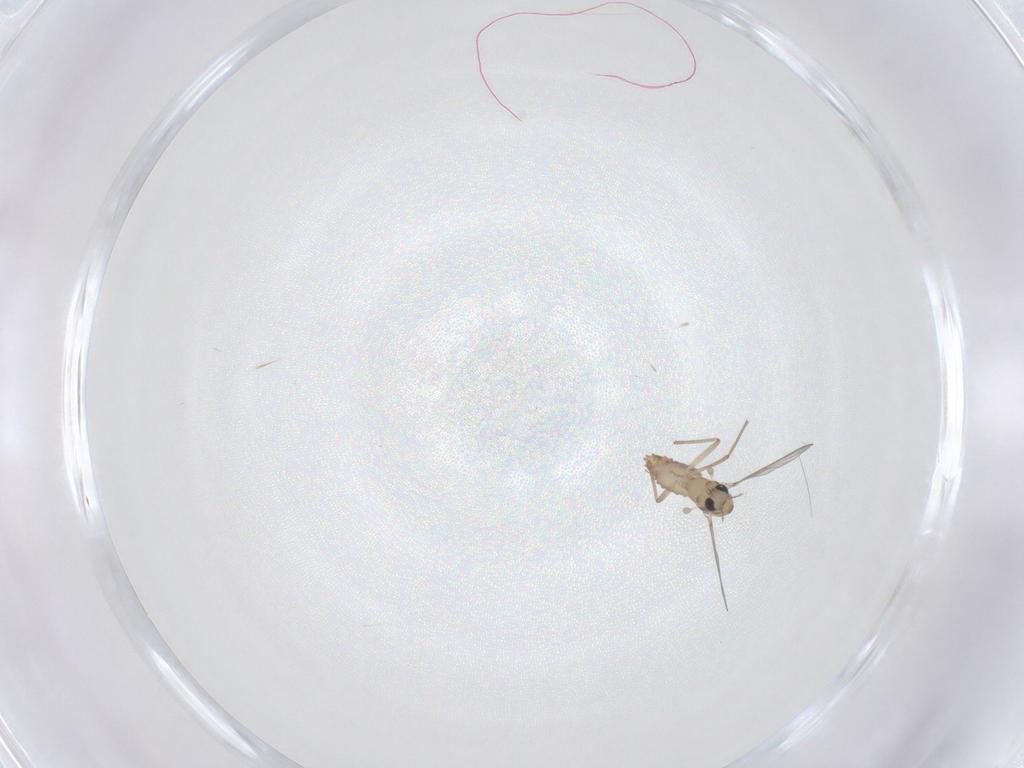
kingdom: Animalia
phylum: Arthropoda
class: Insecta
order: Diptera
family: Chironomidae
